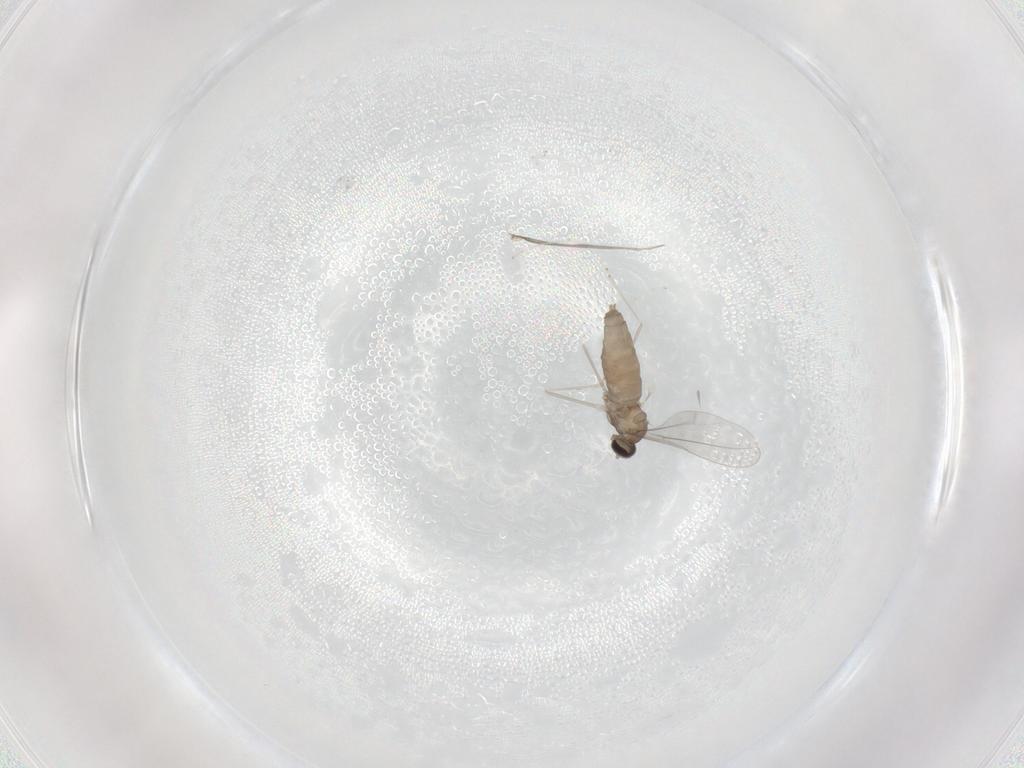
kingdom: Animalia
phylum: Arthropoda
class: Insecta
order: Diptera
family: Cecidomyiidae
